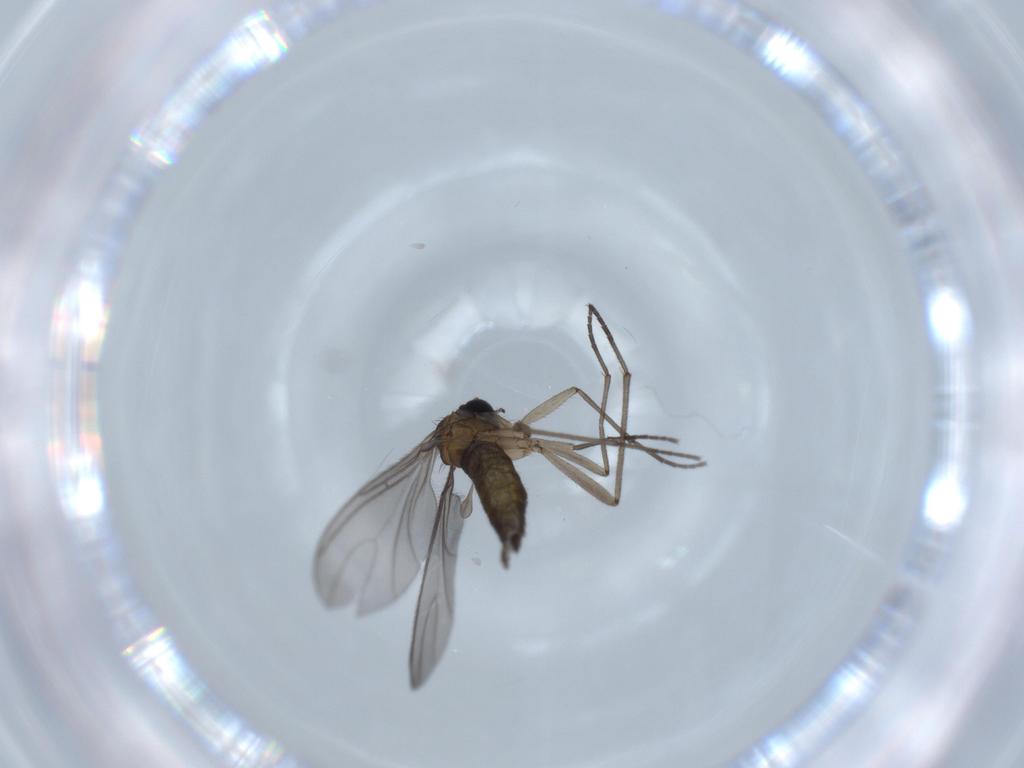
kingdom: Animalia
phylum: Arthropoda
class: Insecta
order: Diptera
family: Sciaridae
